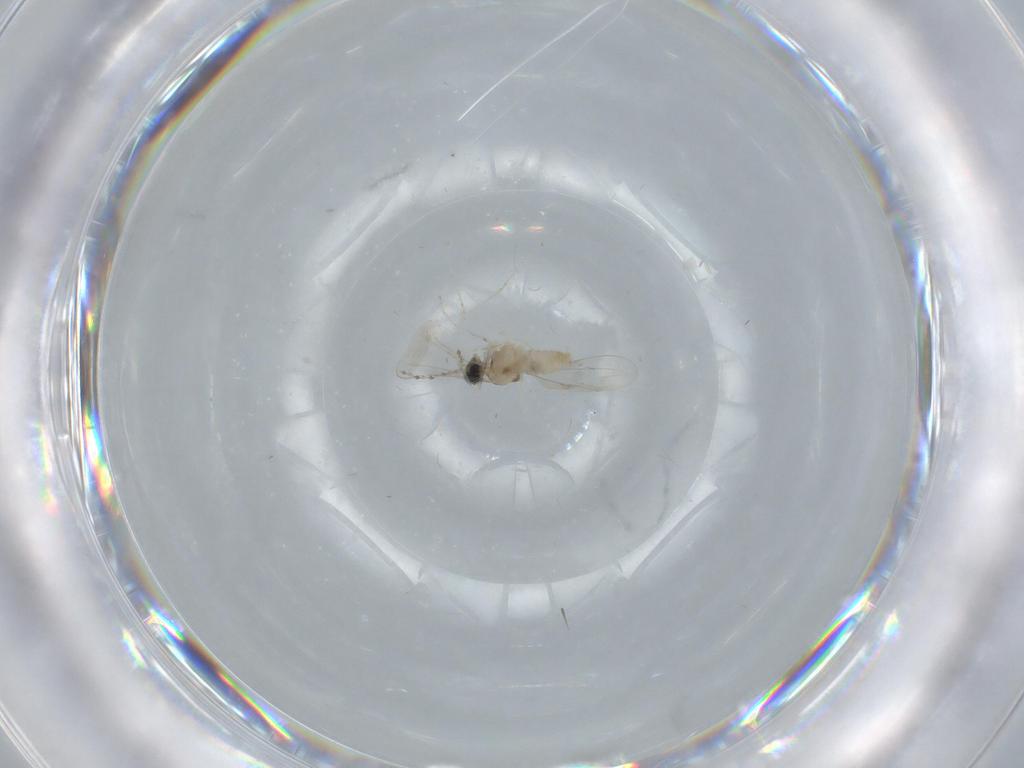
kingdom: Animalia
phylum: Arthropoda
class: Insecta
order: Diptera
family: Cecidomyiidae
